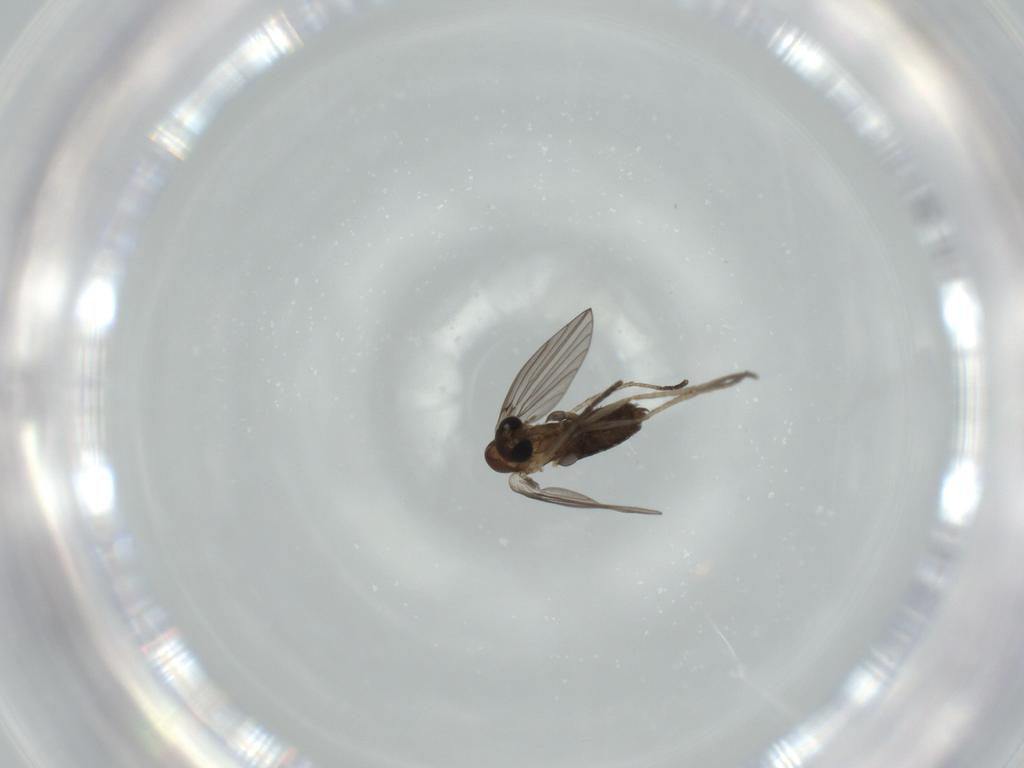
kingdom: Animalia
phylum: Arthropoda
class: Insecta
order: Diptera
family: Psychodidae
